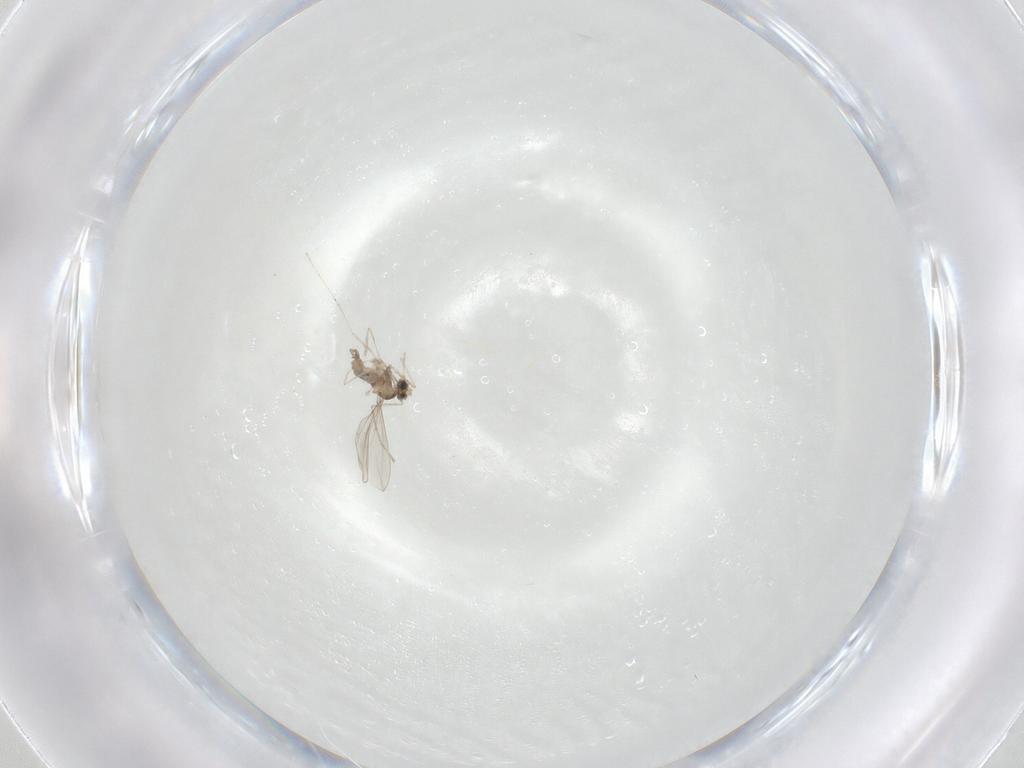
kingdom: Animalia
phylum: Arthropoda
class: Insecta
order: Diptera
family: Cecidomyiidae
